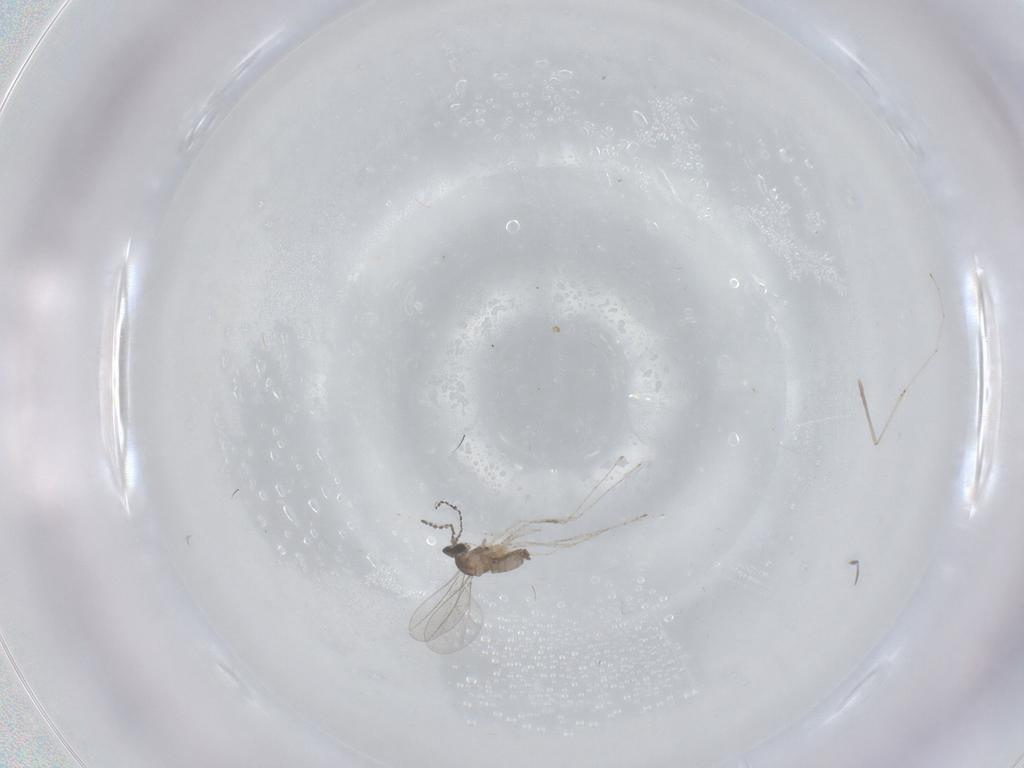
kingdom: Animalia
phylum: Arthropoda
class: Insecta
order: Diptera
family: Cecidomyiidae
